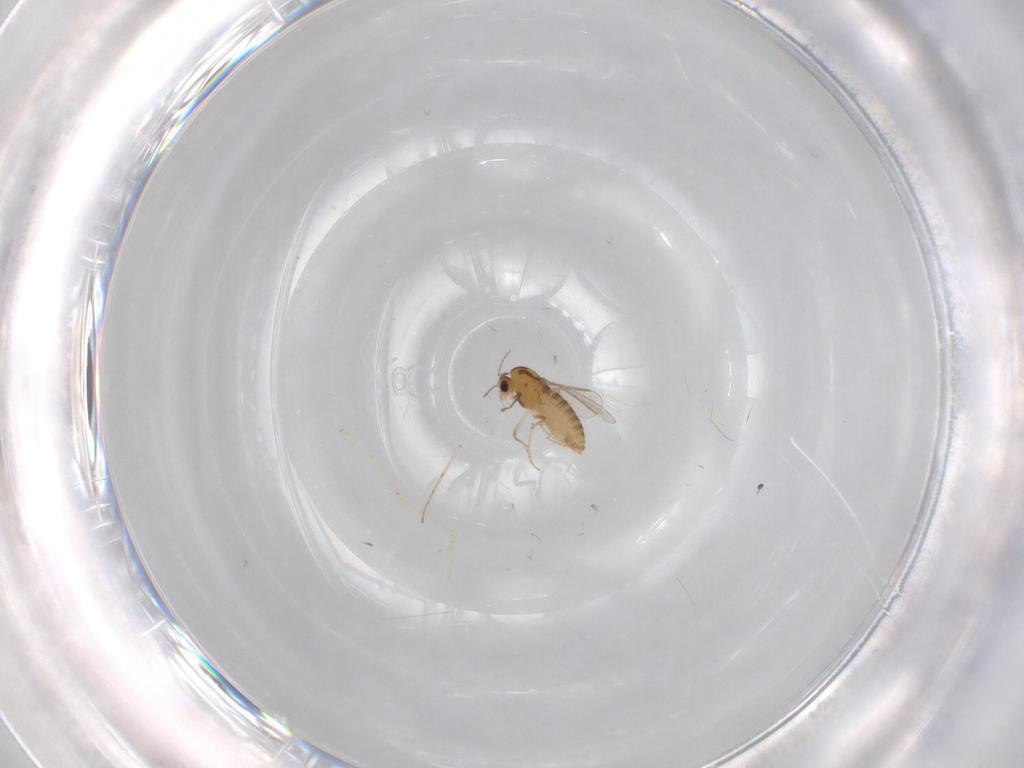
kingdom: Animalia
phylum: Arthropoda
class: Insecta
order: Diptera
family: Chironomidae
